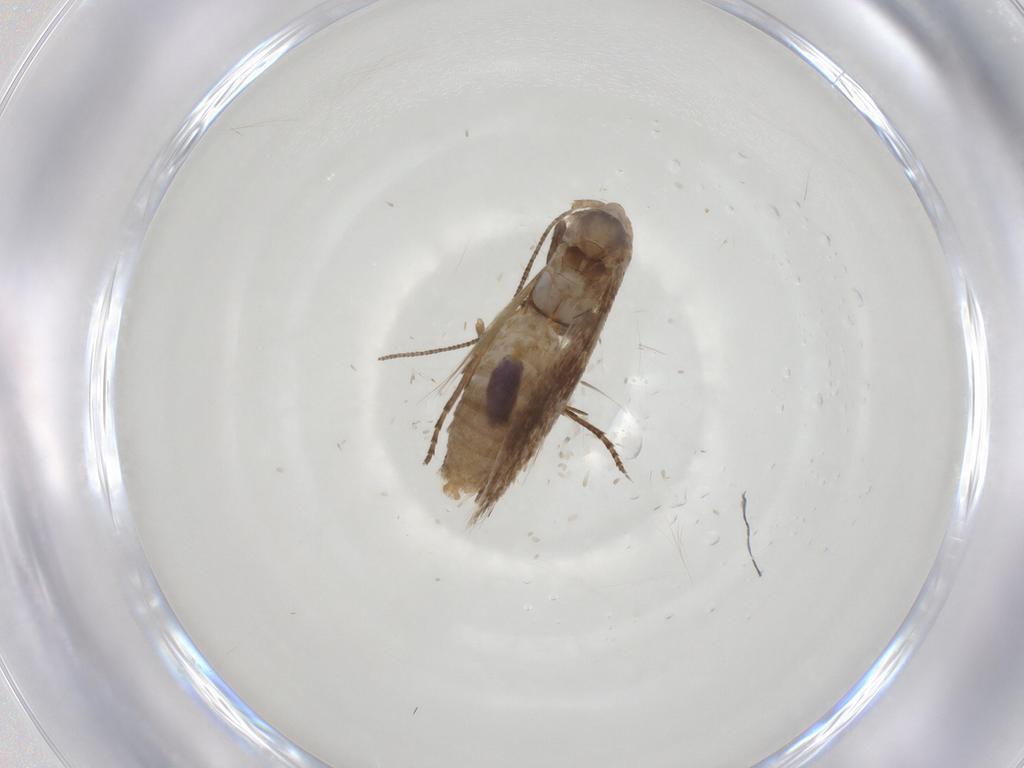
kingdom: Animalia
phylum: Arthropoda
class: Insecta
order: Lepidoptera
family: Bucculatricidae
